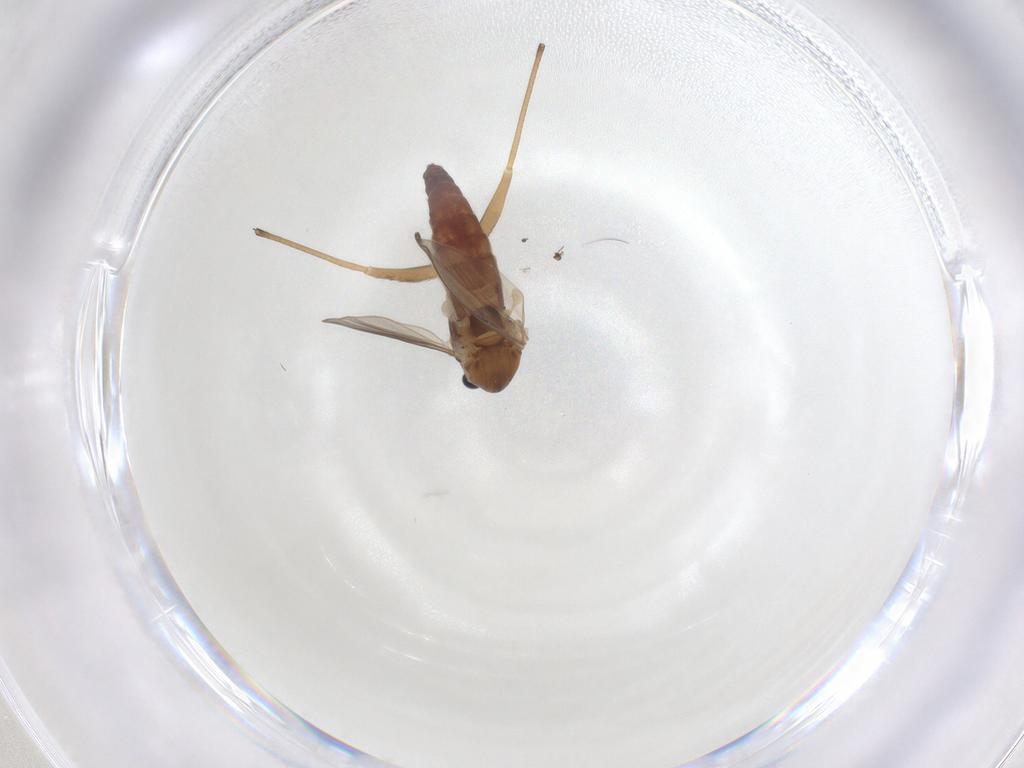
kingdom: Animalia
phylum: Arthropoda
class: Insecta
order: Diptera
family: Chironomidae
